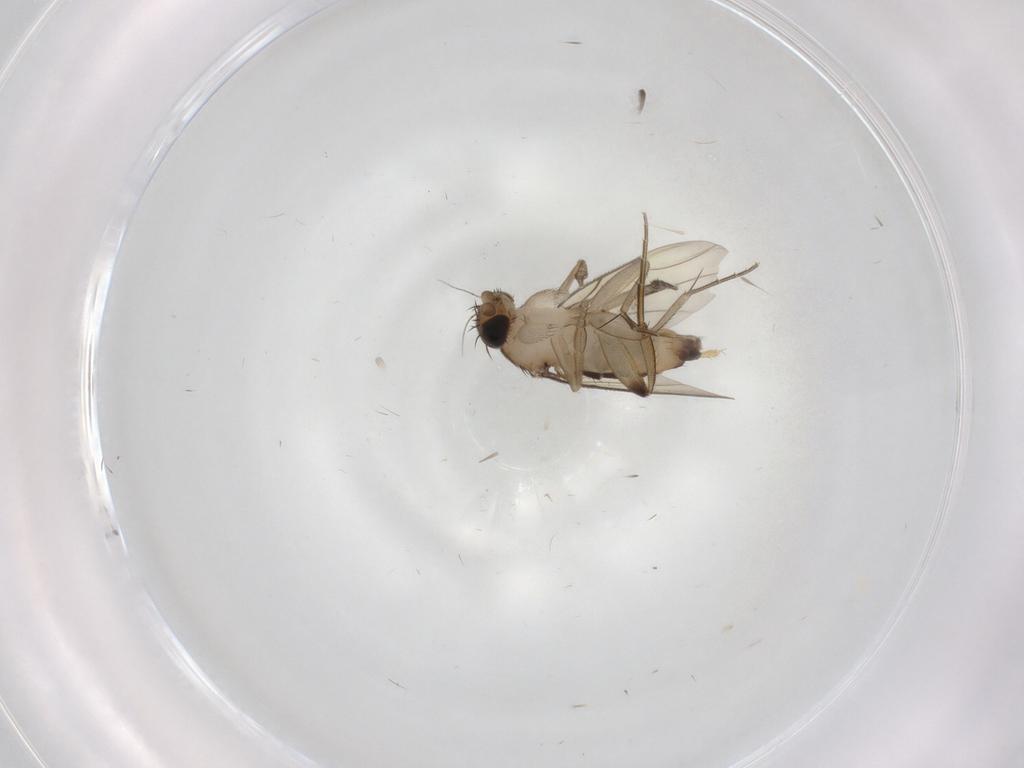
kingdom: Animalia
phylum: Arthropoda
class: Insecta
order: Diptera
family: Phoridae
